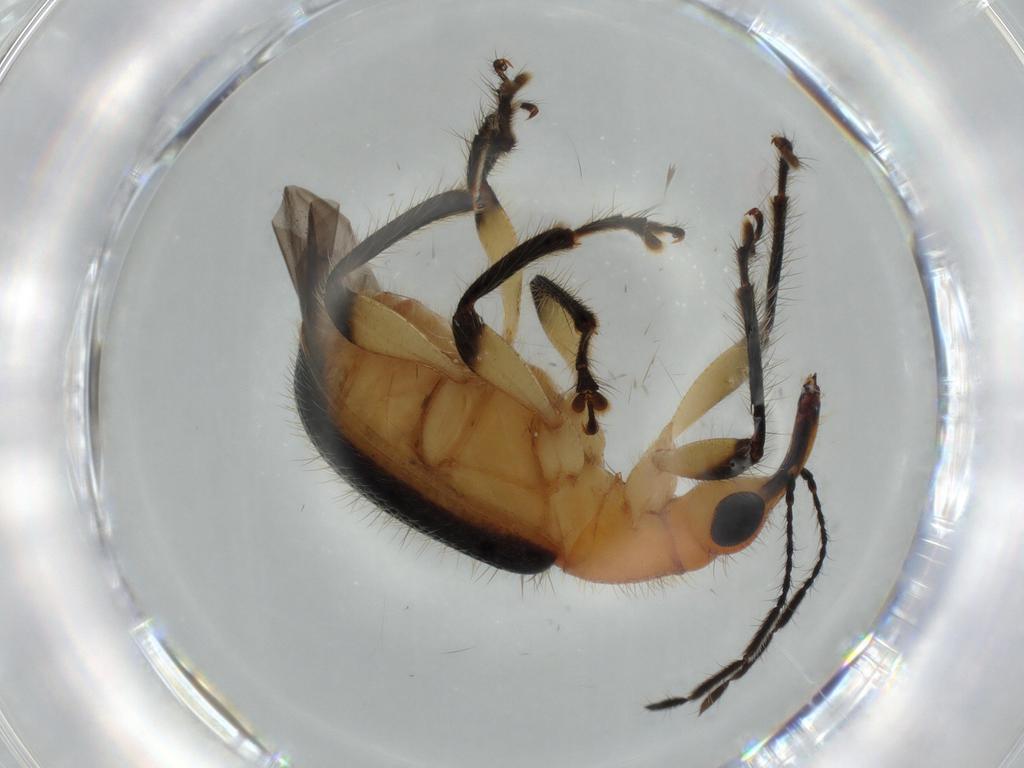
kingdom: Animalia
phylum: Arthropoda
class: Insecta
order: Coleoptera
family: Attelabidae
